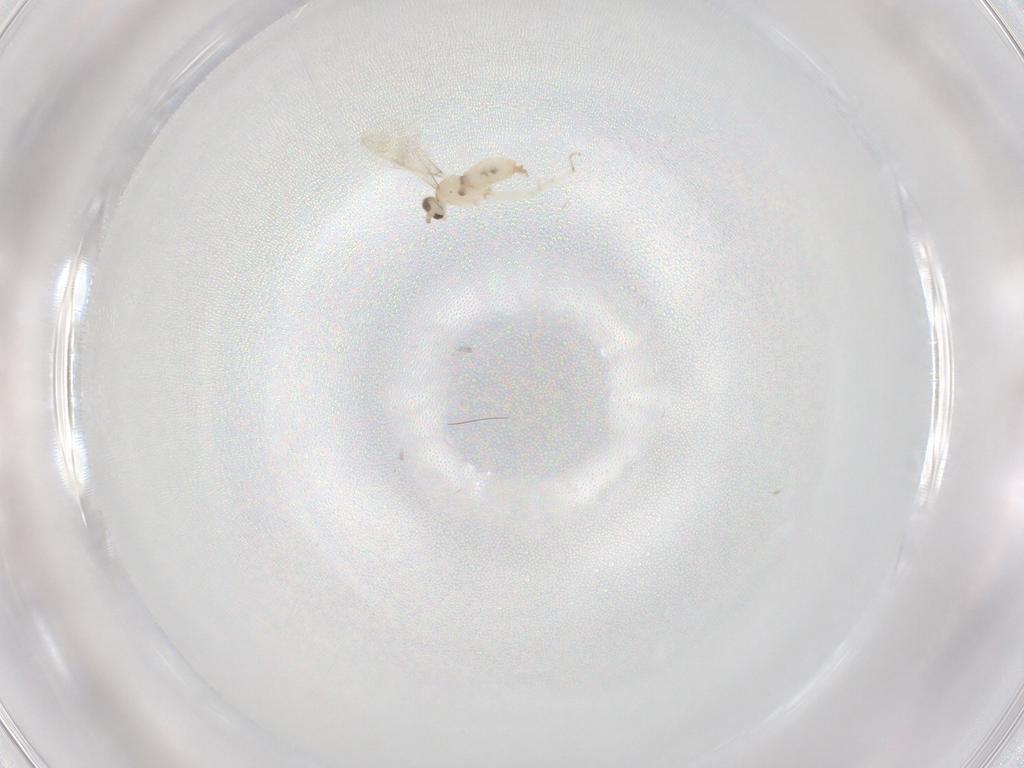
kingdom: Animalia
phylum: Arthropoda
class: Insecta
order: Diptera
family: Cecidomyiidae
